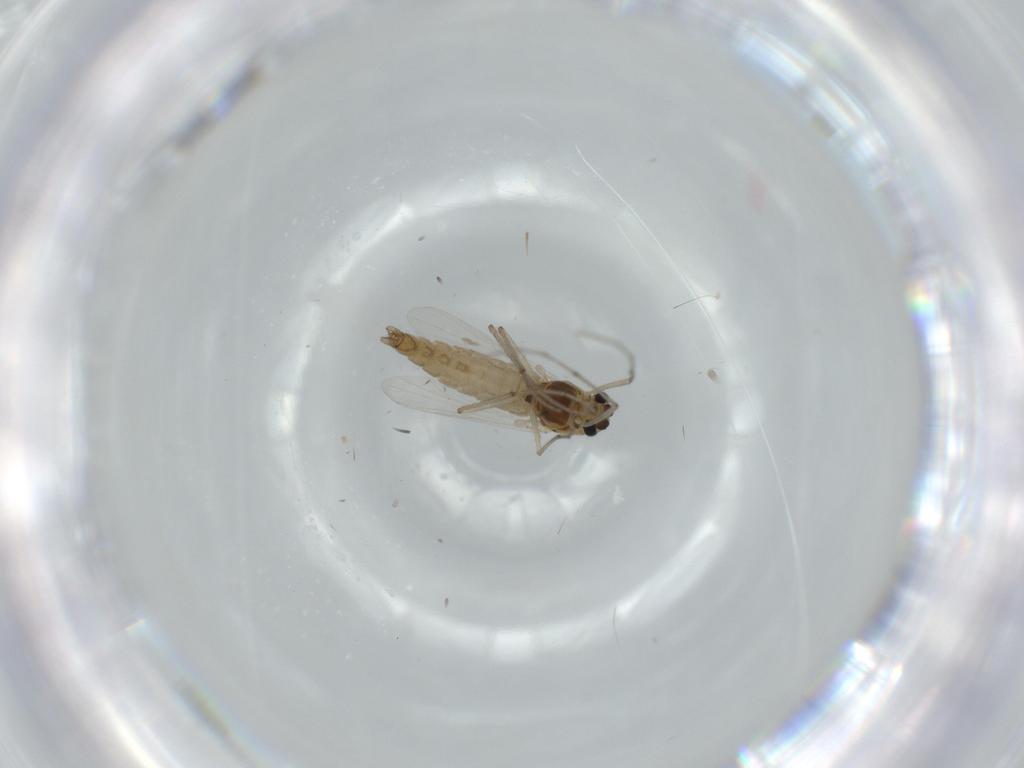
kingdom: Animalia
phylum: Arthropoda
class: Insecta
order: Diptera
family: Chironomidae
